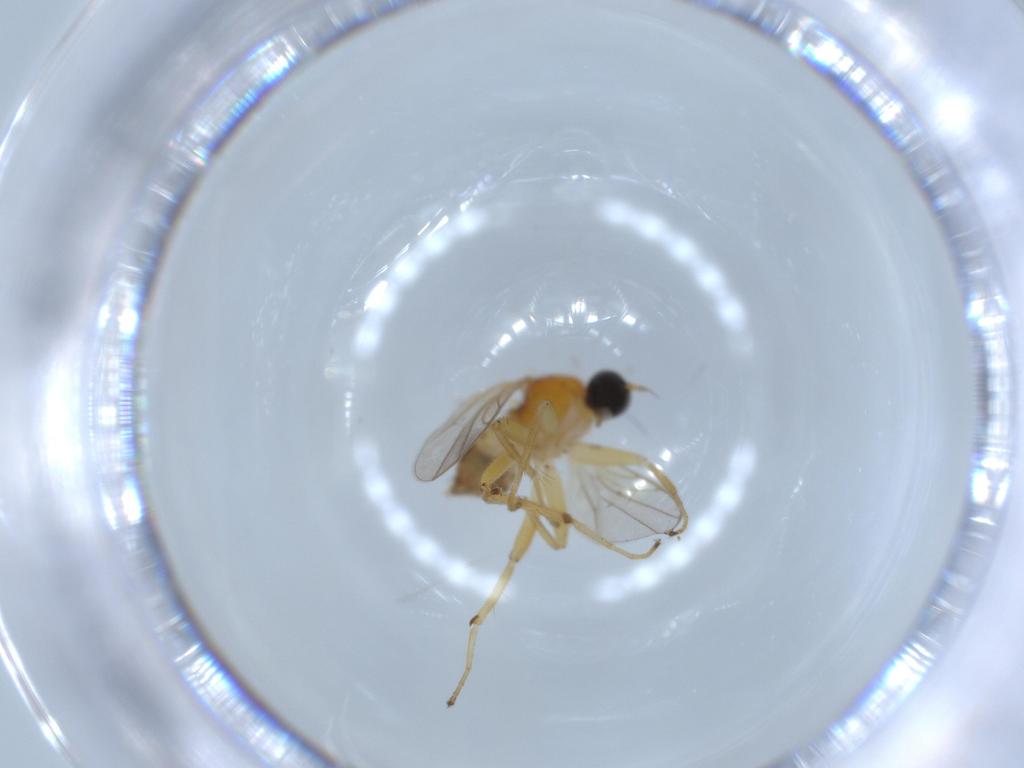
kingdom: Animalia
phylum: Arthropoda
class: Insecta
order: Diptera
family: Hybotidae
